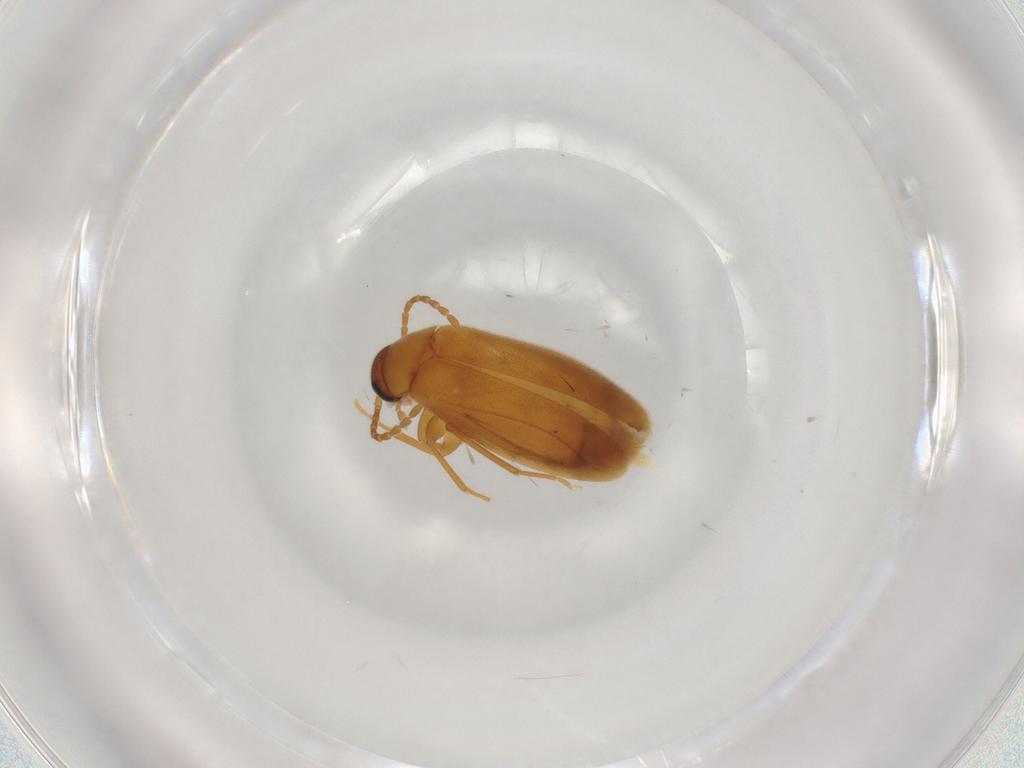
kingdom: Animalia
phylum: Arthropoda
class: Insecta
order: Coleoptera
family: Scraptiidae
